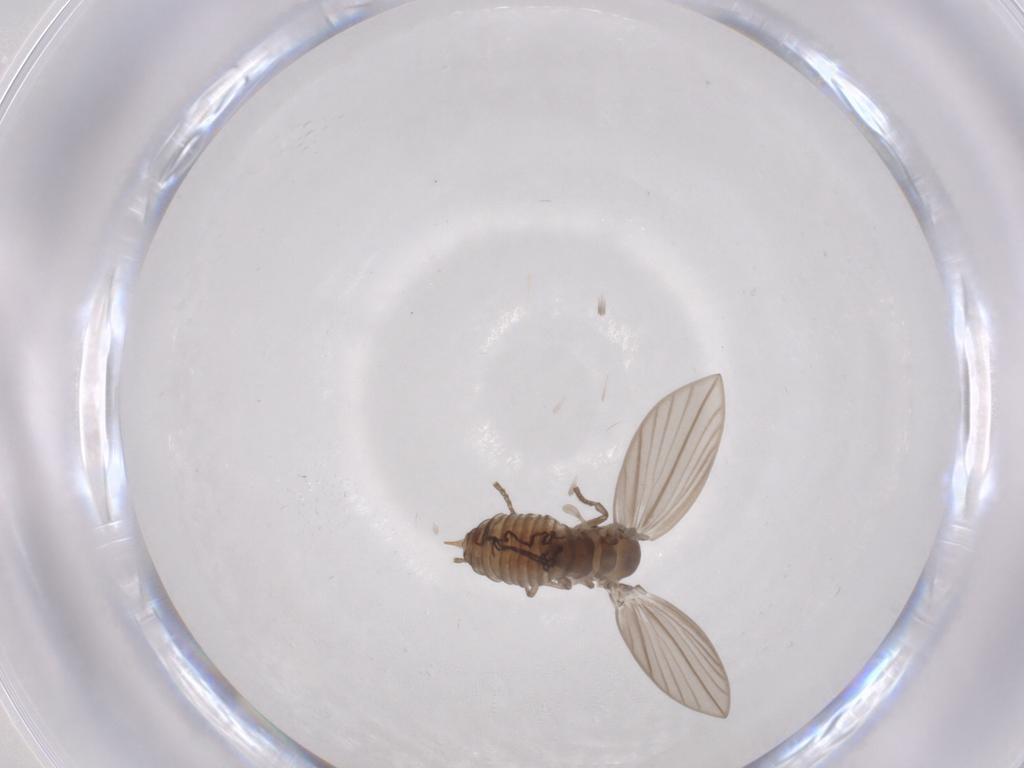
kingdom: Animalia
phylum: Arthropoda
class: Insecta
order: Diptera
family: Psychodidae
